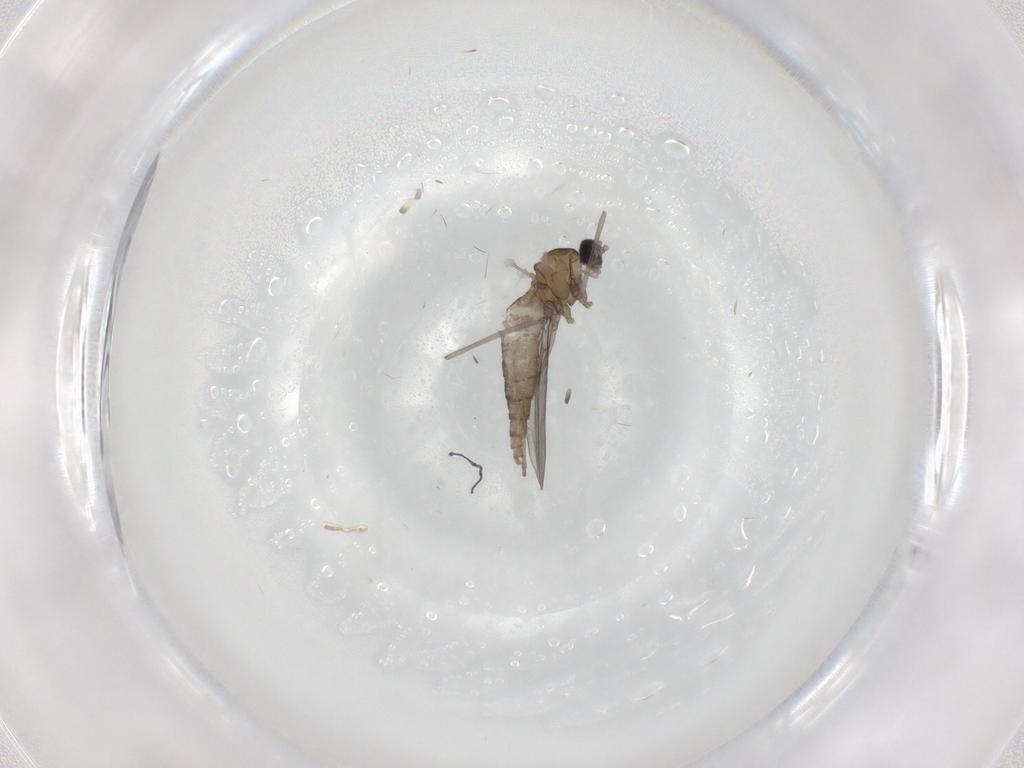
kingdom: Animalia
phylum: Arthropoda
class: Insecta
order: Diptera
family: Cecidomyiidae
